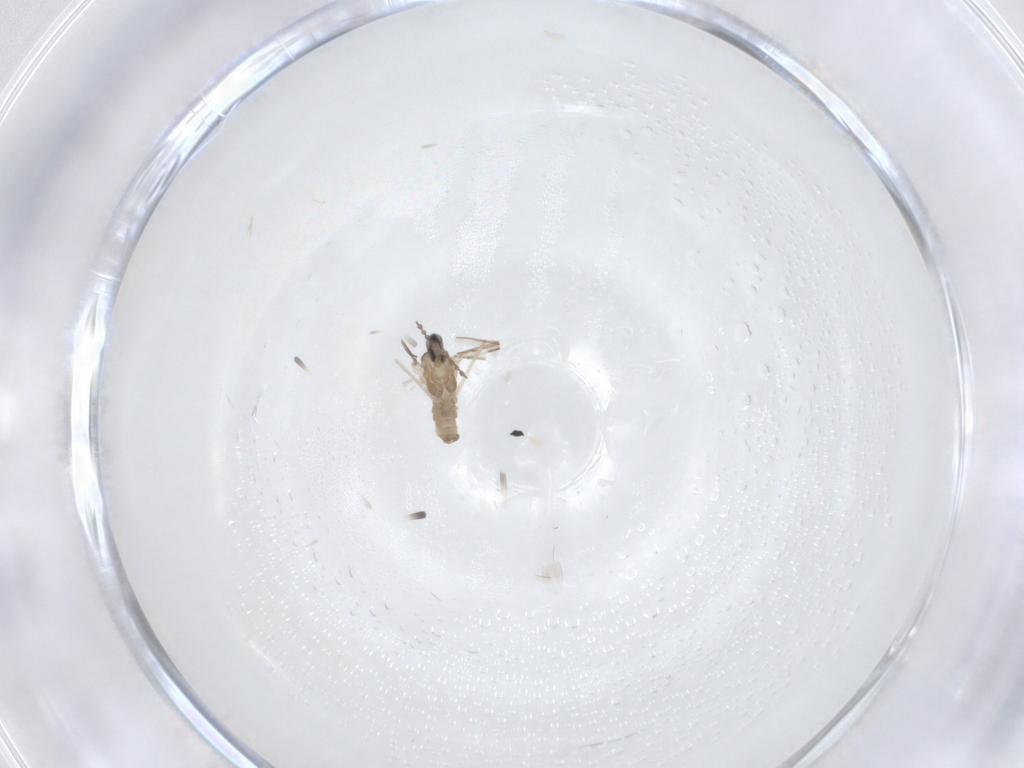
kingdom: Animalia
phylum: Arthropoda
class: Insecta
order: Diptera
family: Cecidomyiidae
